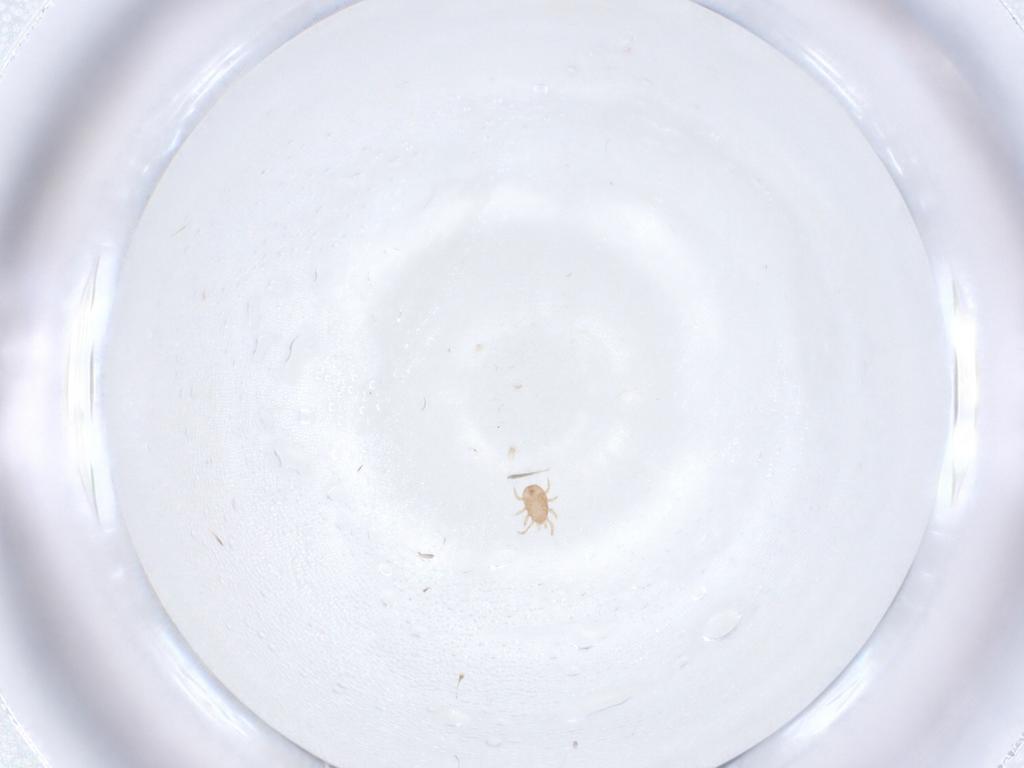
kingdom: Animalia
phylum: Arthropoda
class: Arachnida
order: Mesostigmata
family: Ascidae
